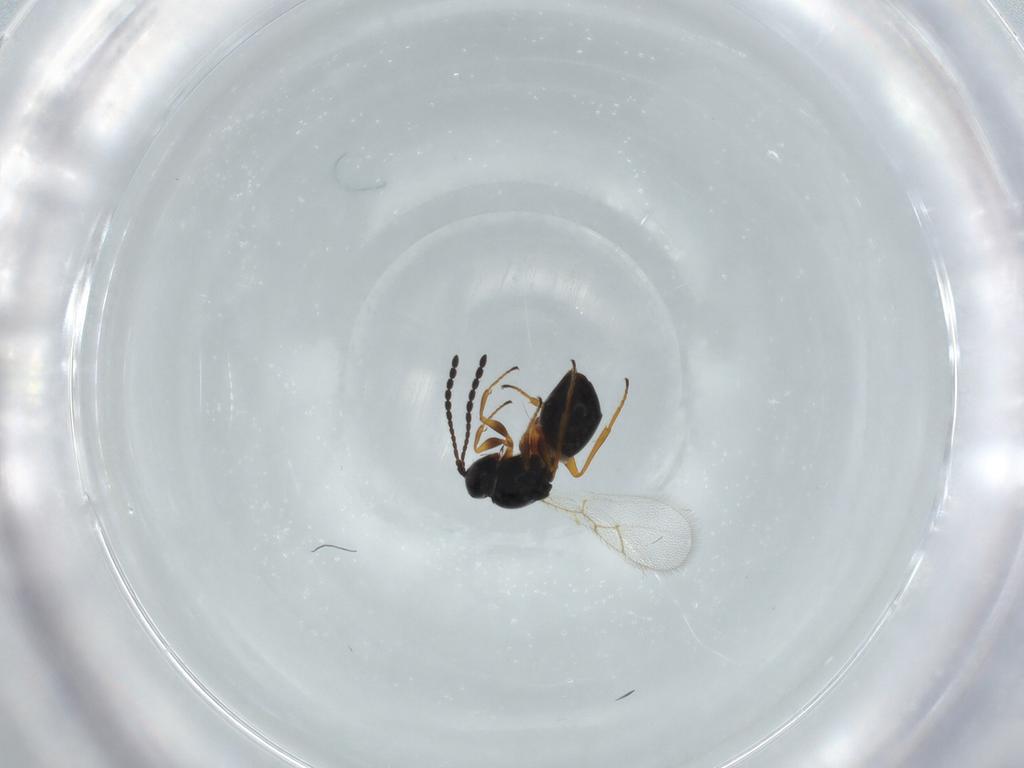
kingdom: Animalia
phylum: Arthropoda
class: Insecta
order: Hymenoptera
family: Figitidae
